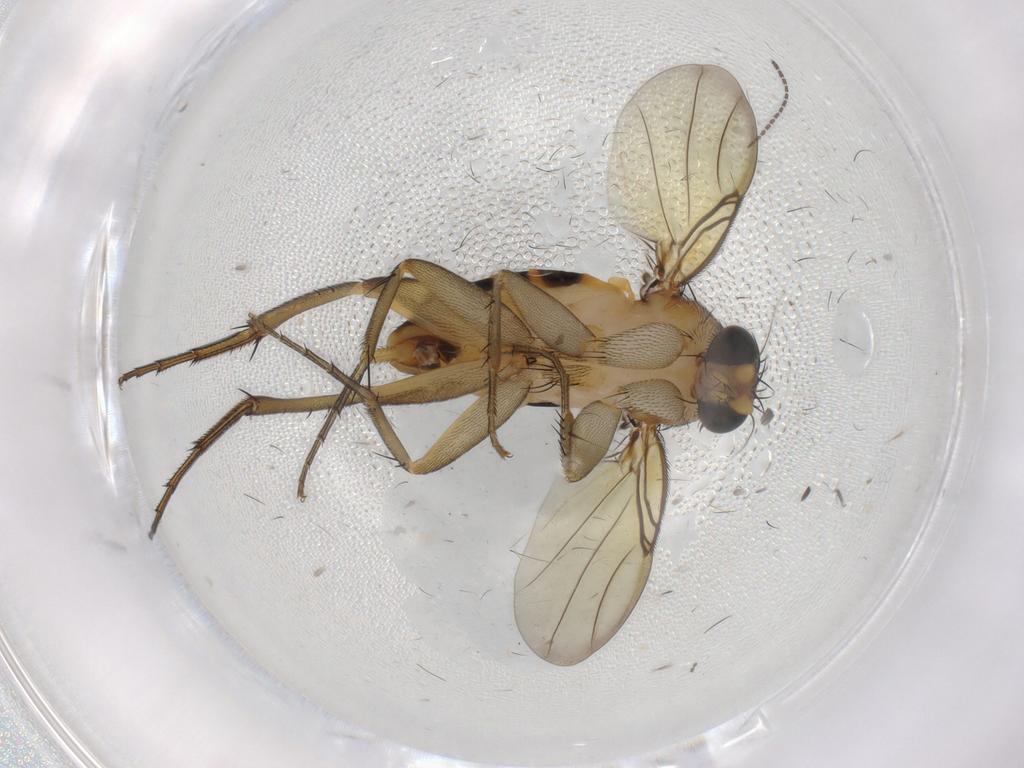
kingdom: Animalia
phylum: Arthropoda
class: Insecta
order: Diptera
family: Phoridae
